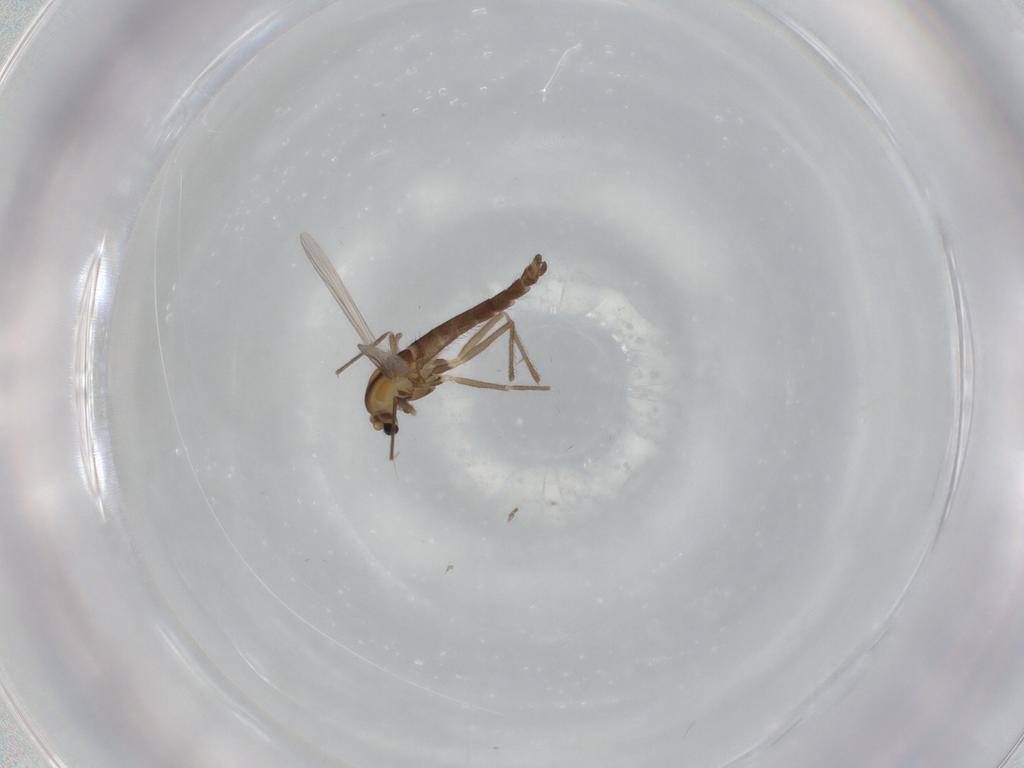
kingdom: Animalia
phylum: Arthropoda
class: Insecta
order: Diptera
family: Chironomidae
